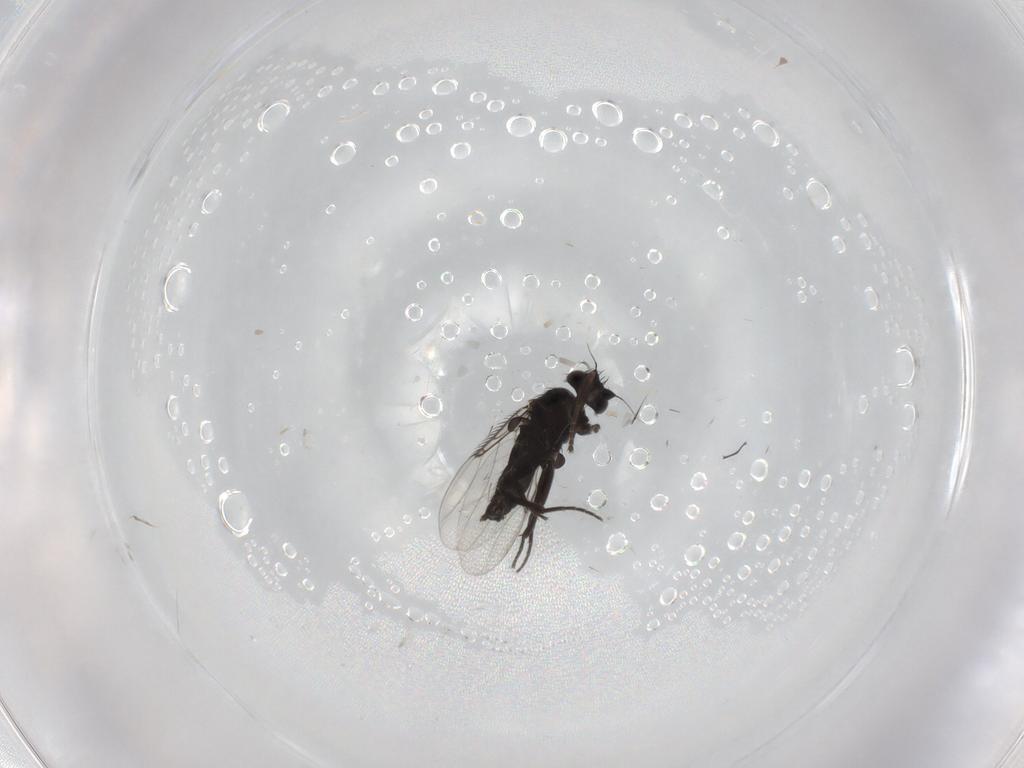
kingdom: Animalia
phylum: Arthropoda
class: Insecta
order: Diptera
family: Phoridae
